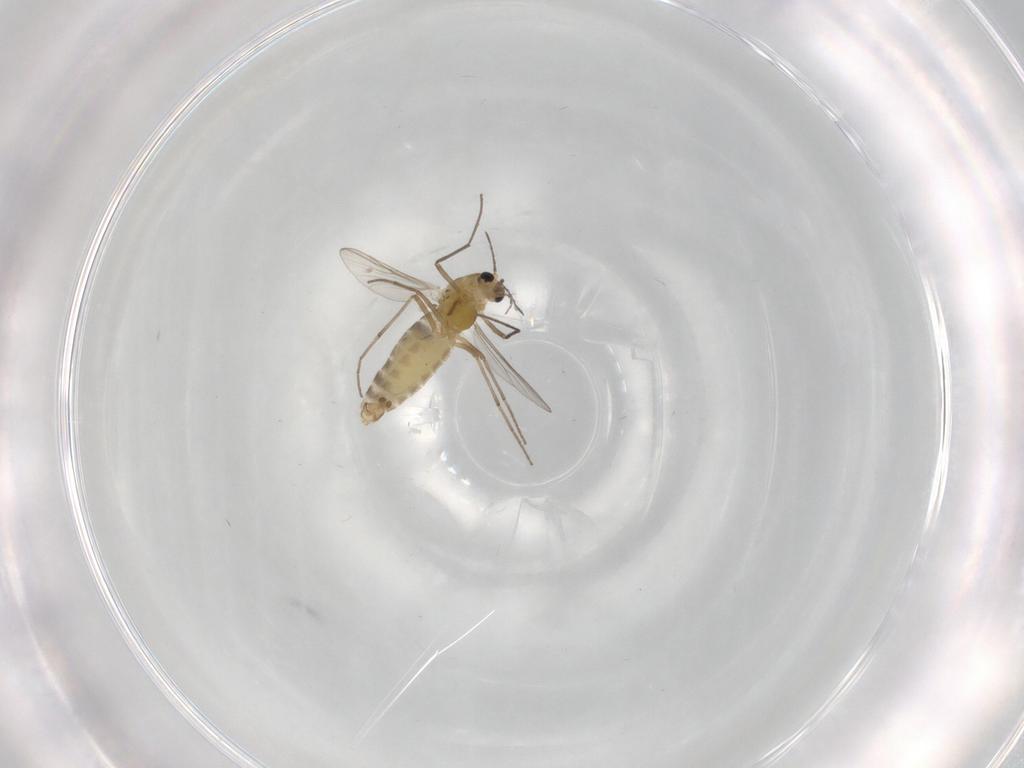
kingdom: Animalia
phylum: Arthropoda
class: Insecta
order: Diptera
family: Chironomidae
